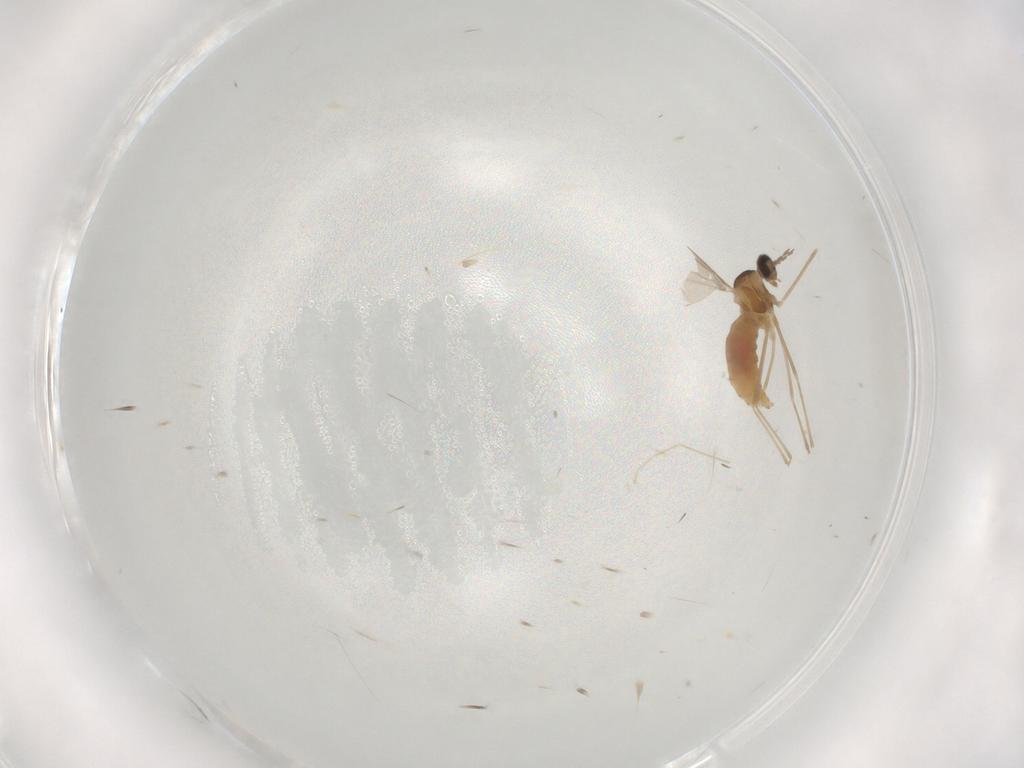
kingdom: Animalia
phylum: Arthropoda
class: Insecta
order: Diptera
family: Cecidomyiidae
